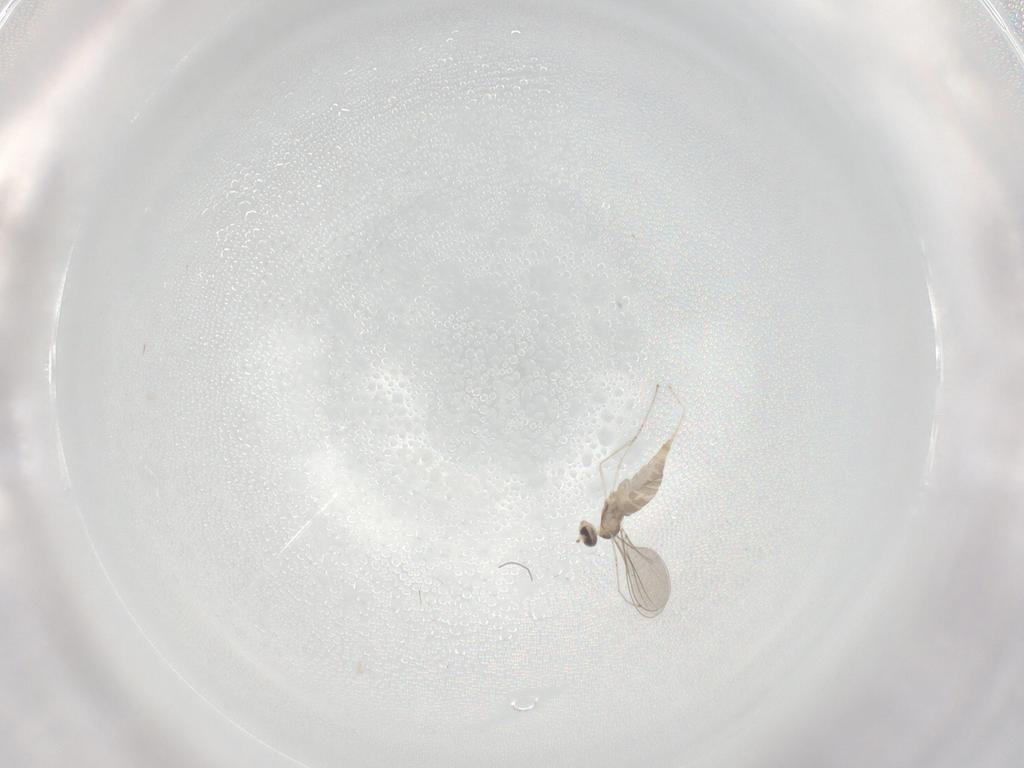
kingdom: Animalia
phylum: Arthropoda
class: Insecta
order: Diptera
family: Cecidomyiidae
